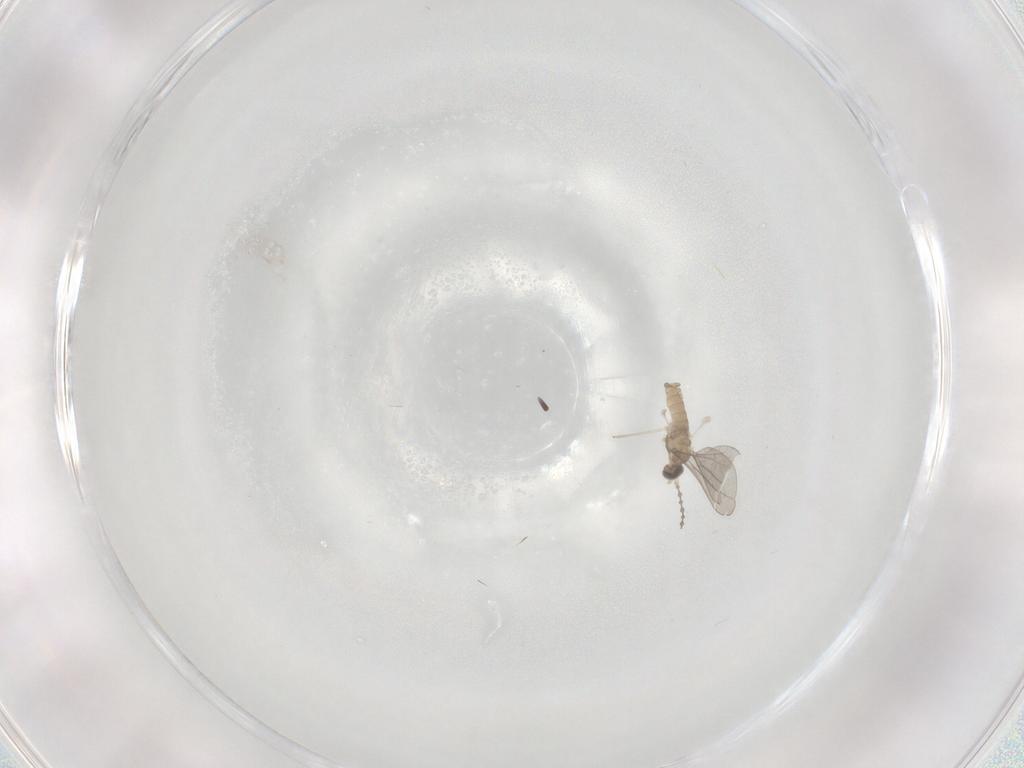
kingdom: Animalia
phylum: Arthropoda
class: Insecta
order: Diptera
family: Cecidomyiidae
